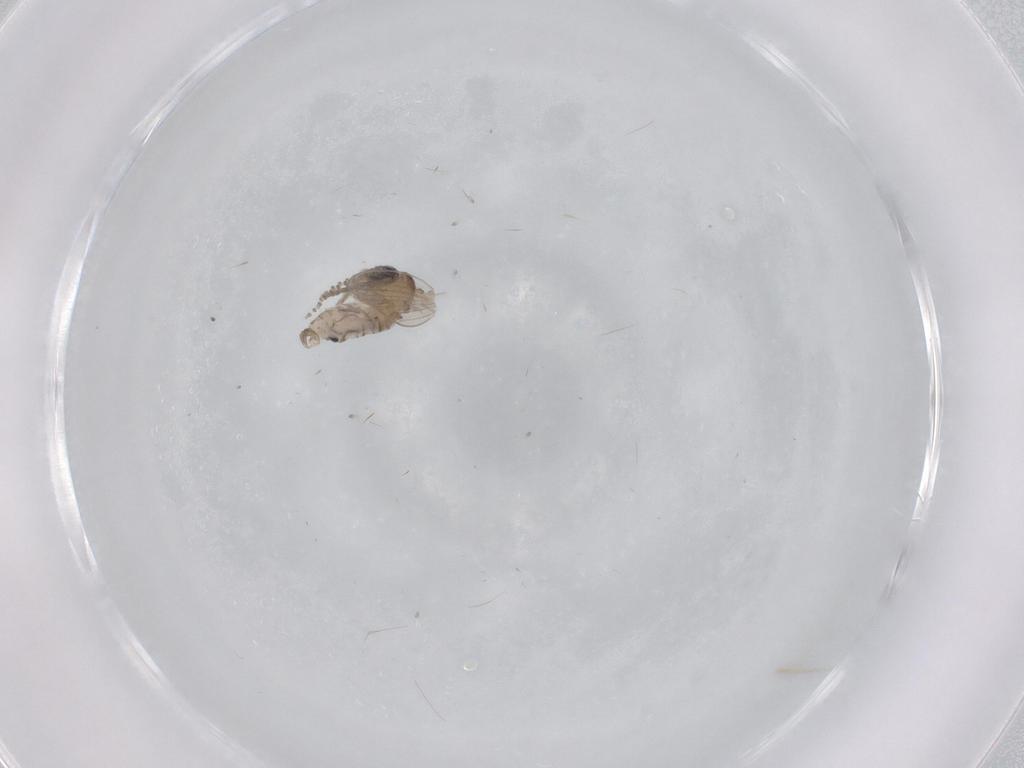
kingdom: Animalia
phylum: Arthropoda
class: Insecta
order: Diptera
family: Psychodidae
